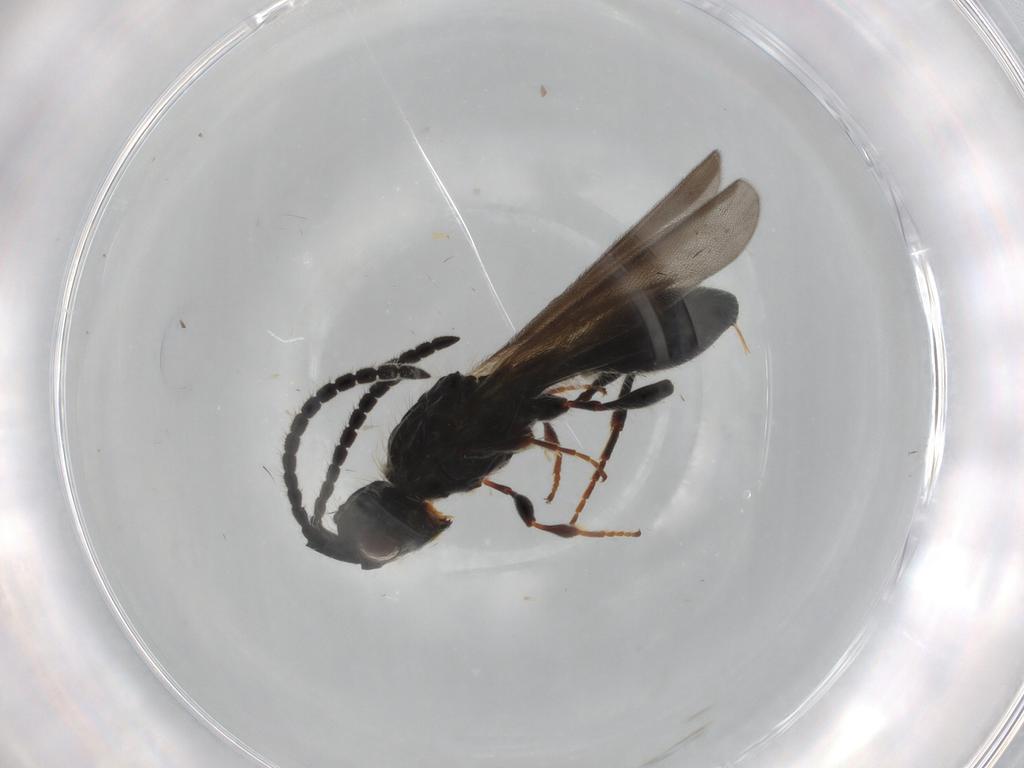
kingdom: Animalia
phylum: Arthropoda
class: Insecta
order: Hymenoptera
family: Diapriidae
